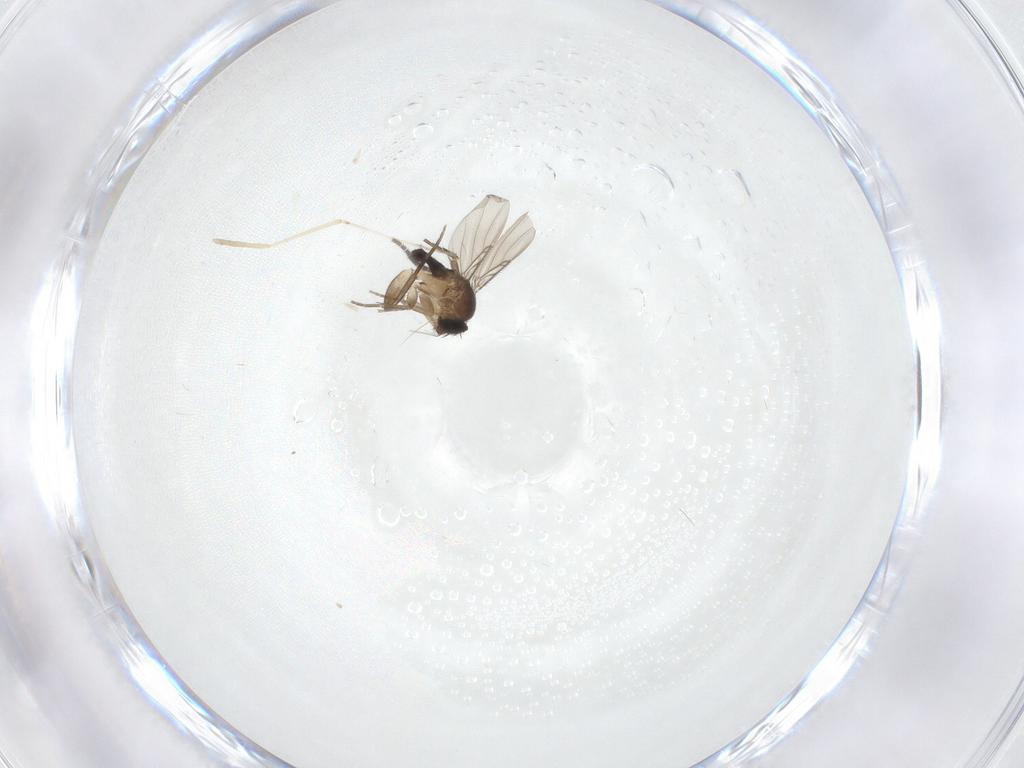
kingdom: Animalia
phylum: Arthropoda
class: Insecta
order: Diptera
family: Phoridae
